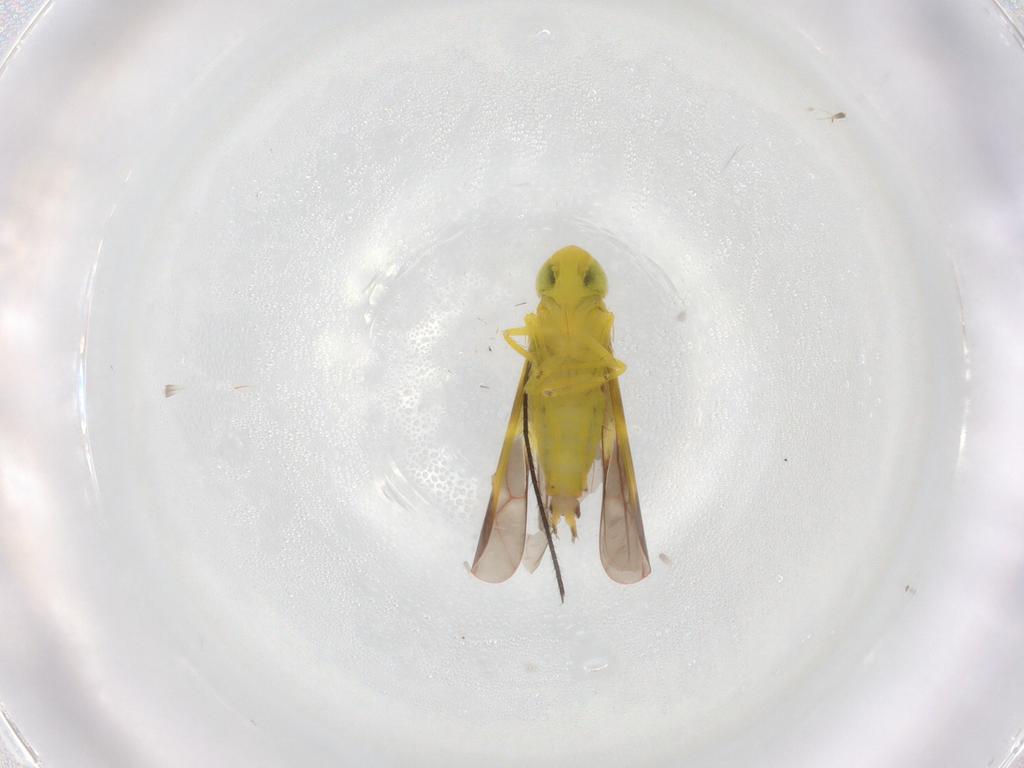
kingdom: Animalia
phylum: Arthropoda
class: Insecta
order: Hemiptera
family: Cicadellidae
